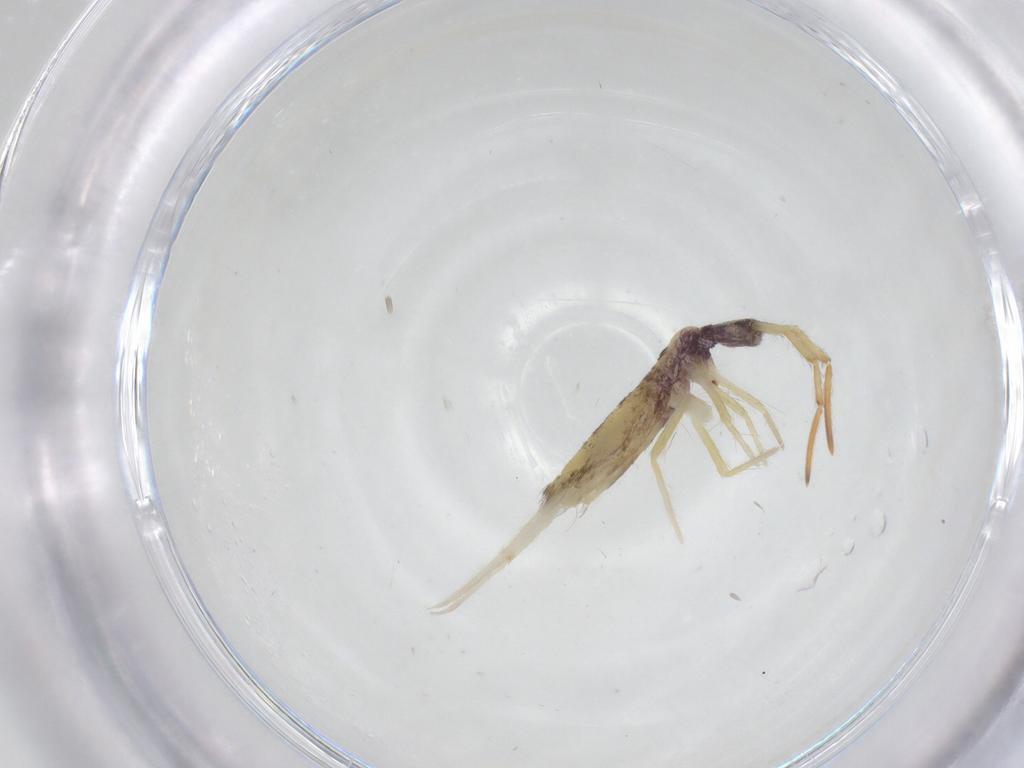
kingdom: Animalia
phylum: Arthropoda
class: Collembola
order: Entomobryomorpha
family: Entomobryidae
